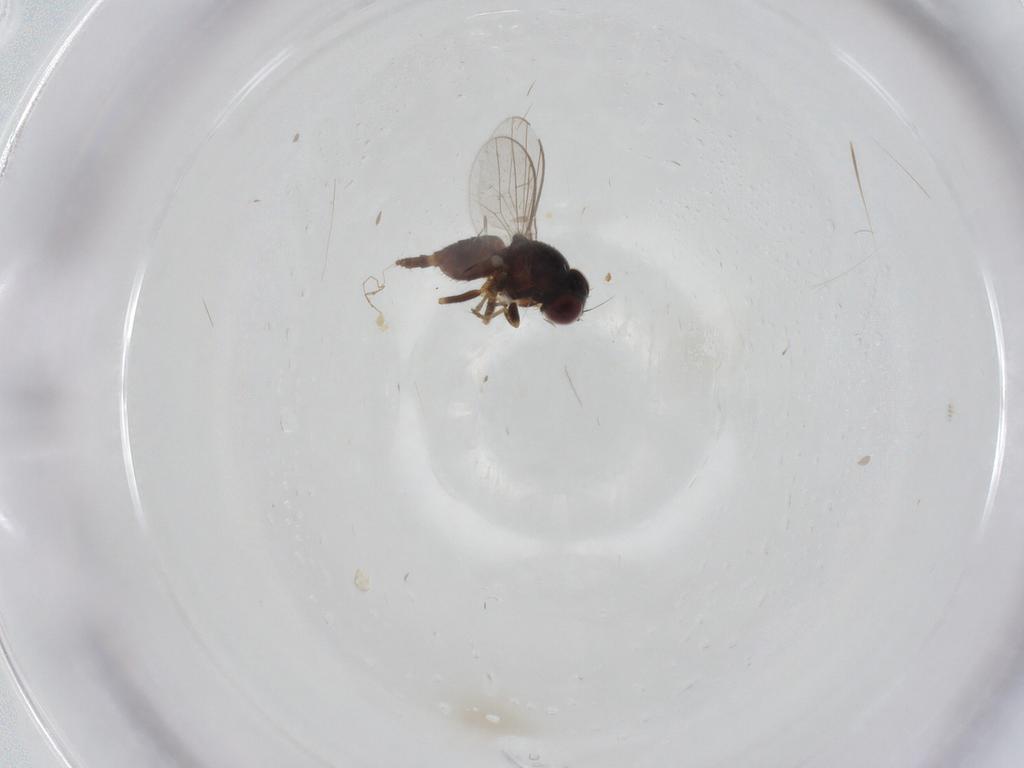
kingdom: Animalia
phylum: Arthropoda
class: Insecta
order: Diptera
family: Chloropidae
